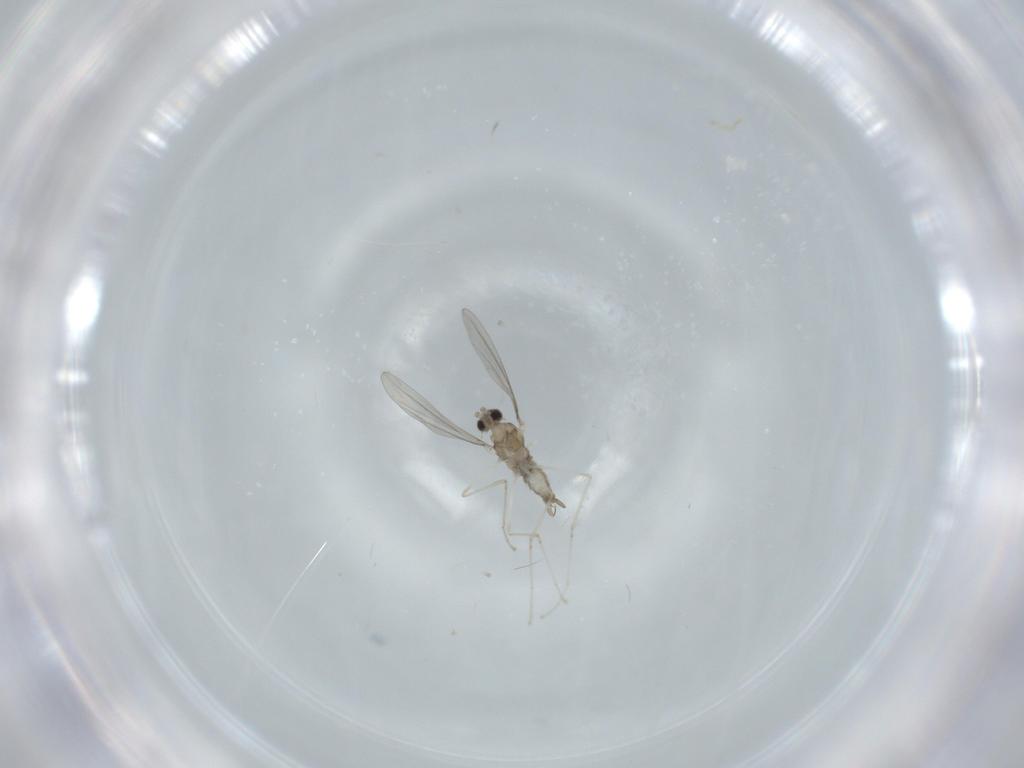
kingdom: Animalia
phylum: Arthropoda
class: Insecta
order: Diptera
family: Cecidomyiidae
